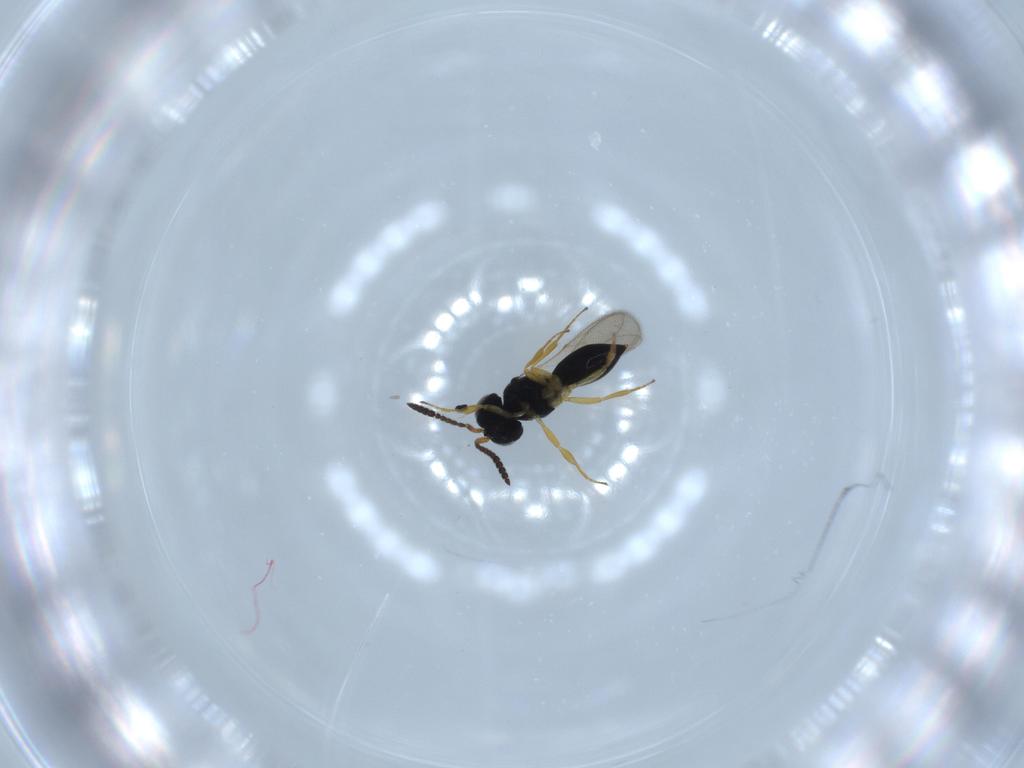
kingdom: Animalia
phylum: Arthropoda
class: Insecta
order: Hymenoptera
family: Scelionidae
